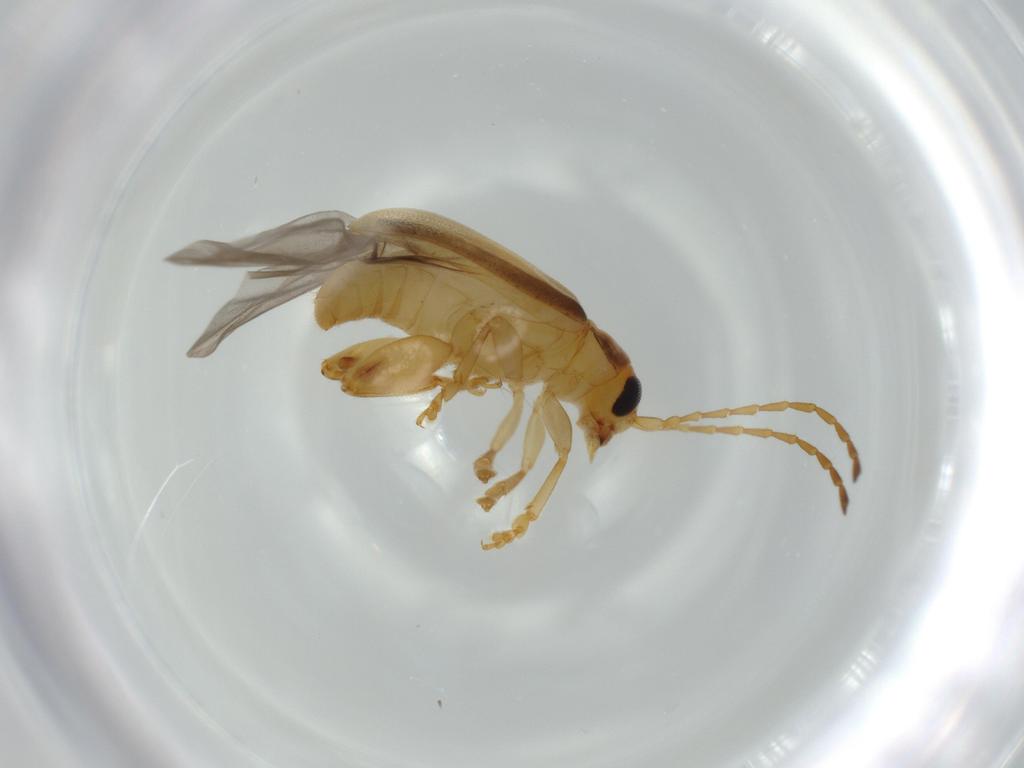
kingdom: Animalia
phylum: Arthropoda
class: Insecta
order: Coleoptera
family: Chrysomelidae
